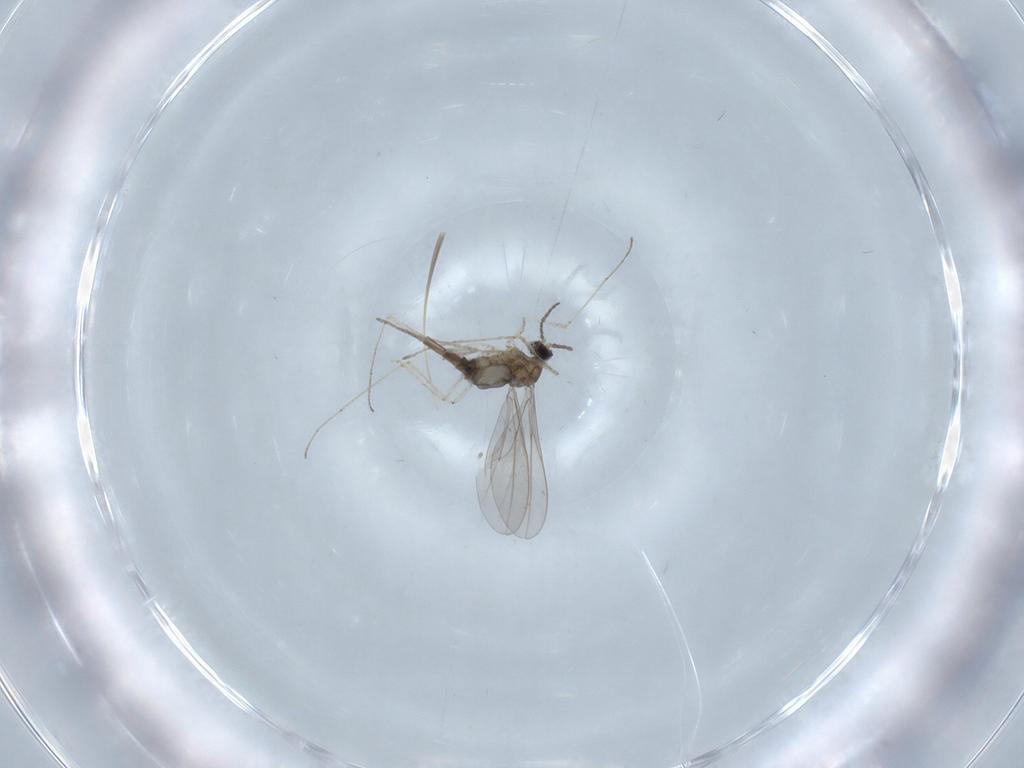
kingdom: Animalia
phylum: Arthropoda
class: Insecta
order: Diptera
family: Cecidomyiidae
